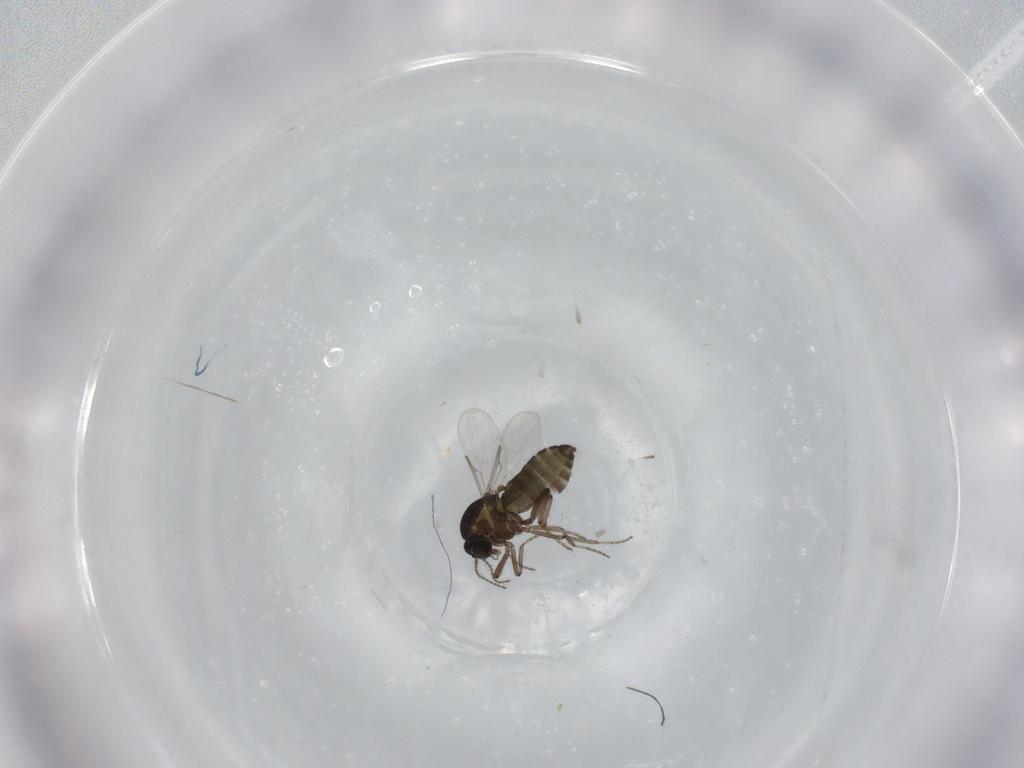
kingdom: Animalia
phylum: Arthropoda
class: Insecta
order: Diptera
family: Ceratopogonidae
